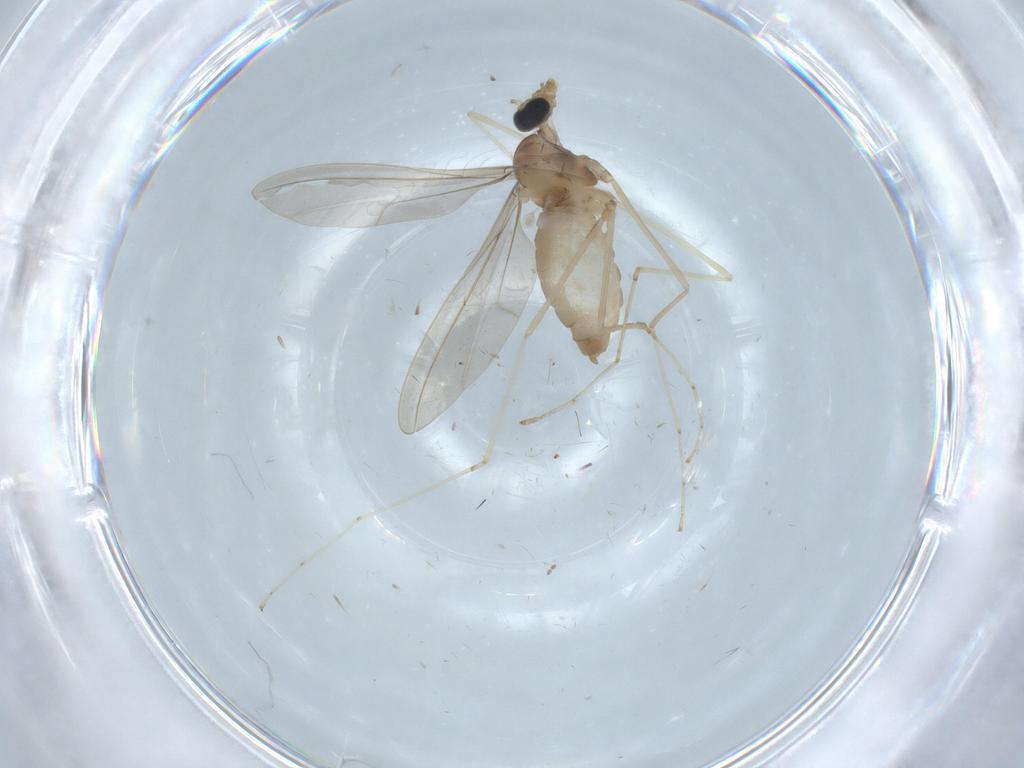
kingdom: Animalia
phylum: Arthropoda
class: Insecta
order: Diptera
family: Cecidomyiidae
